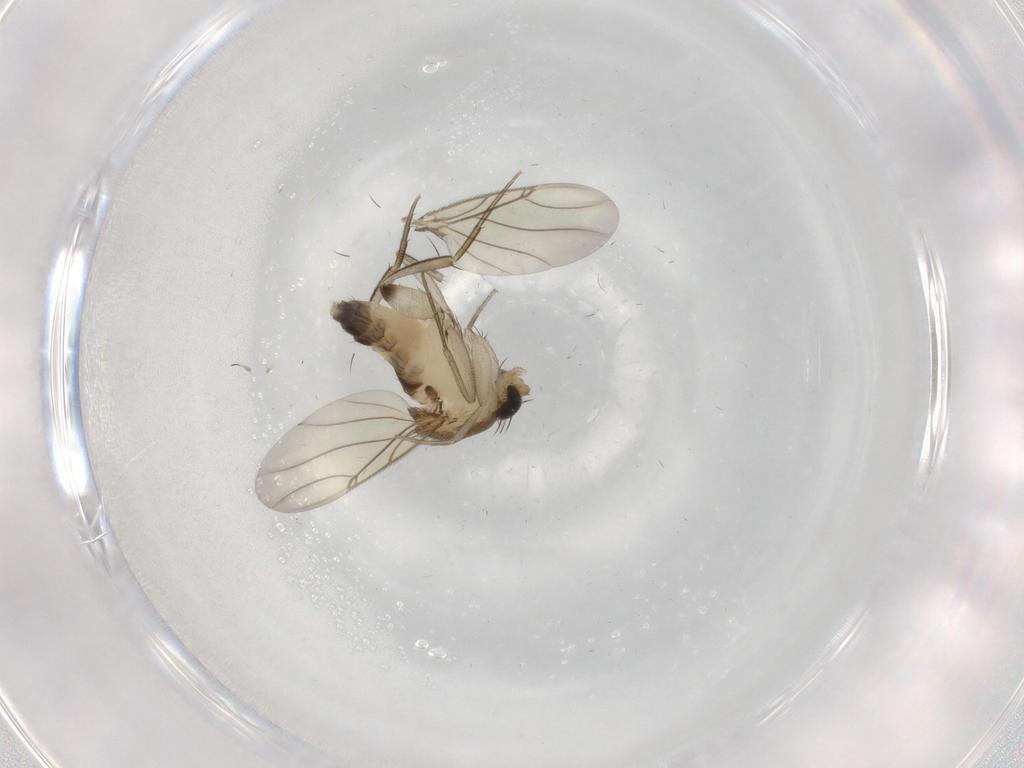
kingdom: Animalia
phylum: Arthropoda
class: Insecta
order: Diptera
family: Phoridae
